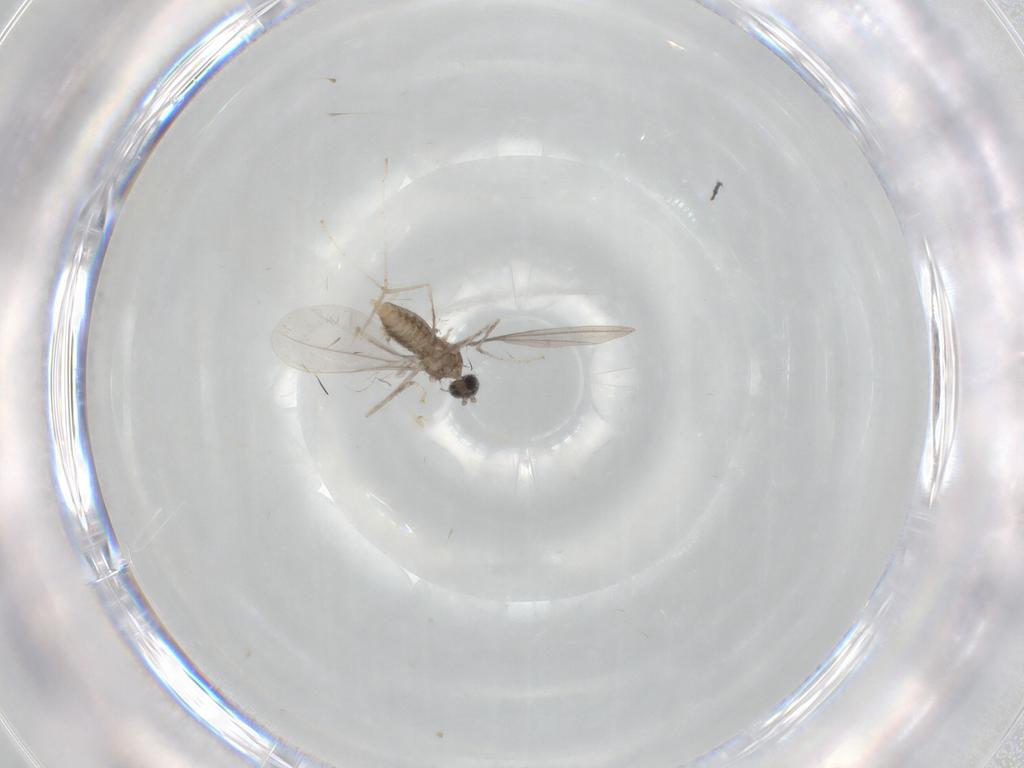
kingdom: Animalia
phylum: Arthropoda
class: Insecta
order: Diptera
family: Cecidomyiidae
